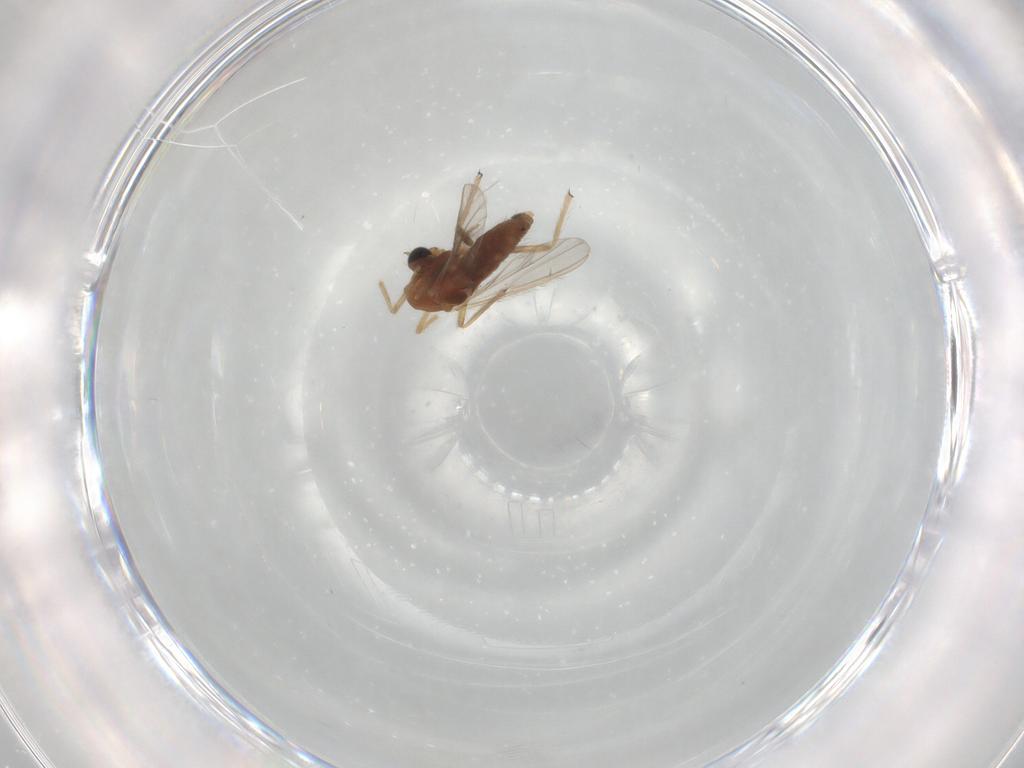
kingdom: Animalia
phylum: Arthropoda
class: Insecta
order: Diptera
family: Chironomidae
